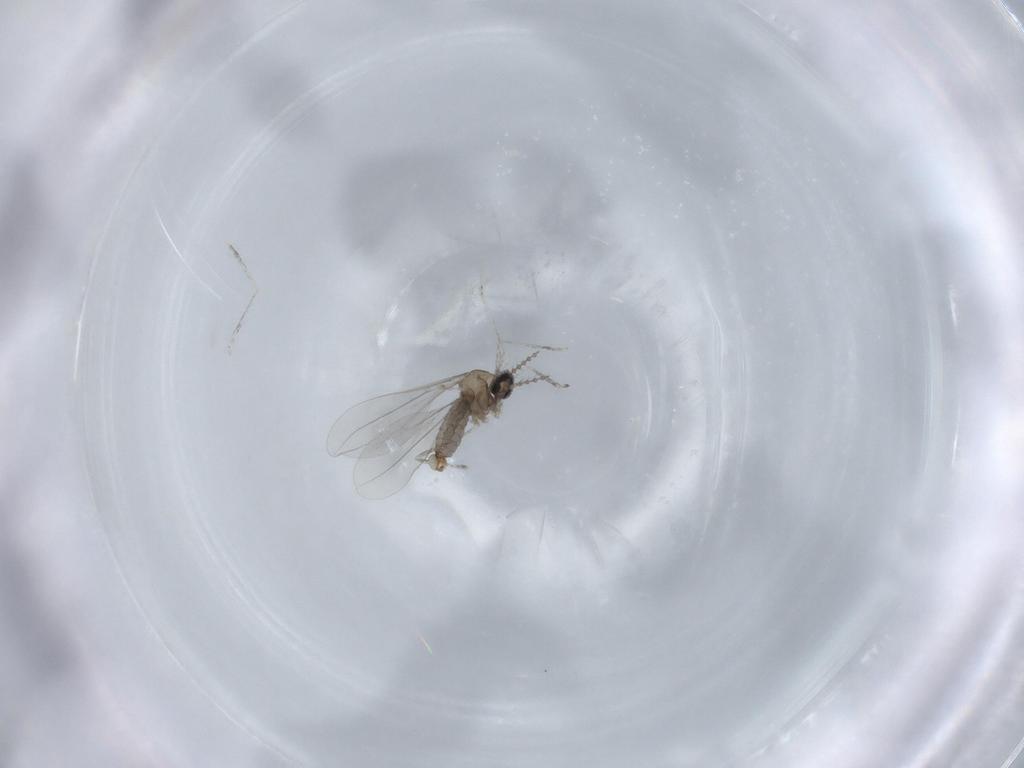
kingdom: Animalia
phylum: Arthropoda
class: Insecta
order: Diptera
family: Cecidomyiidae
